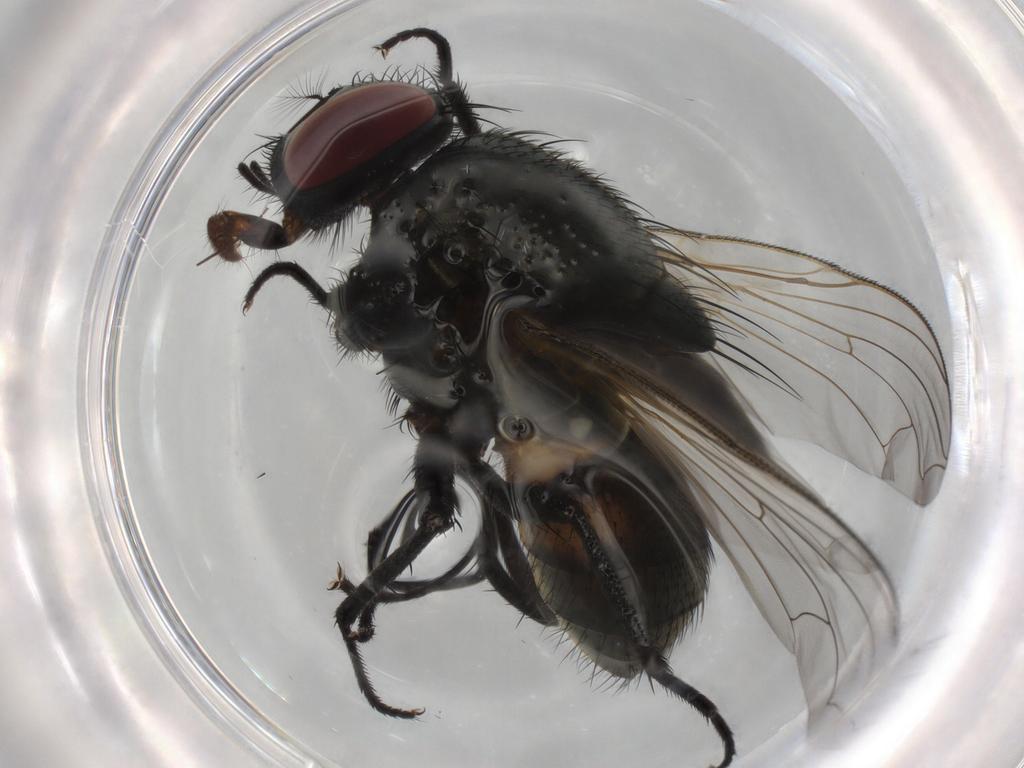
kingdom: Animalia
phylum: Arthropoda
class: Insecta
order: Diptera
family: Muscidae
